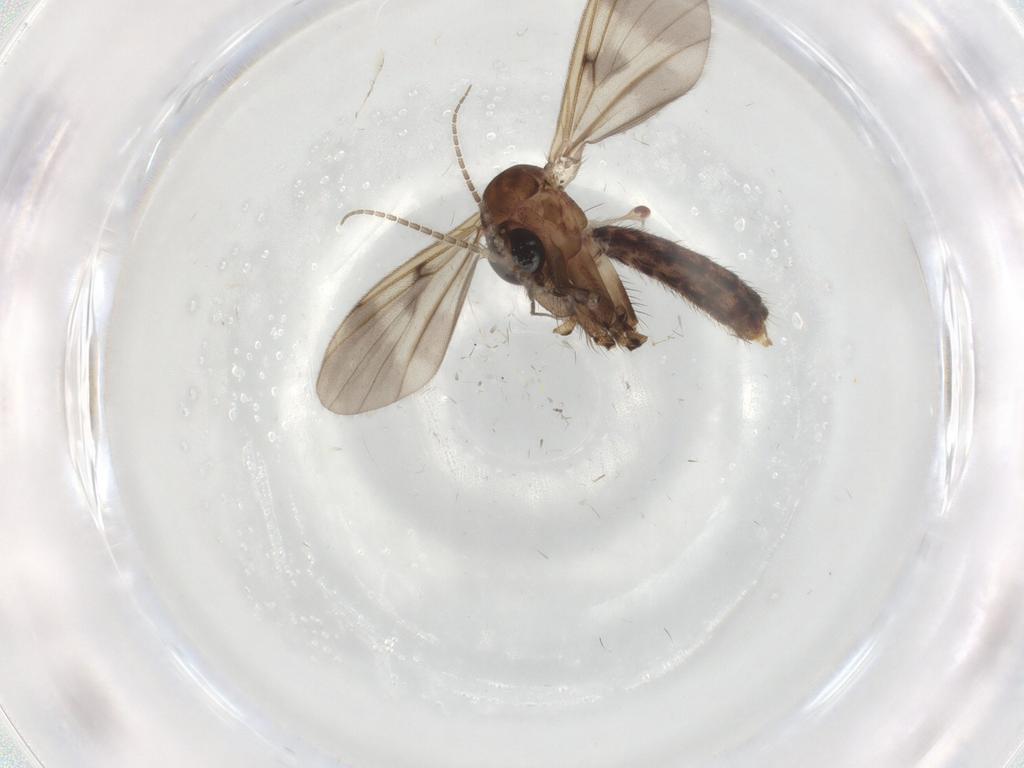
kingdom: Animalia
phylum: Arthropoda
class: Insecta
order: Diptera
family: Mycetophilidae
